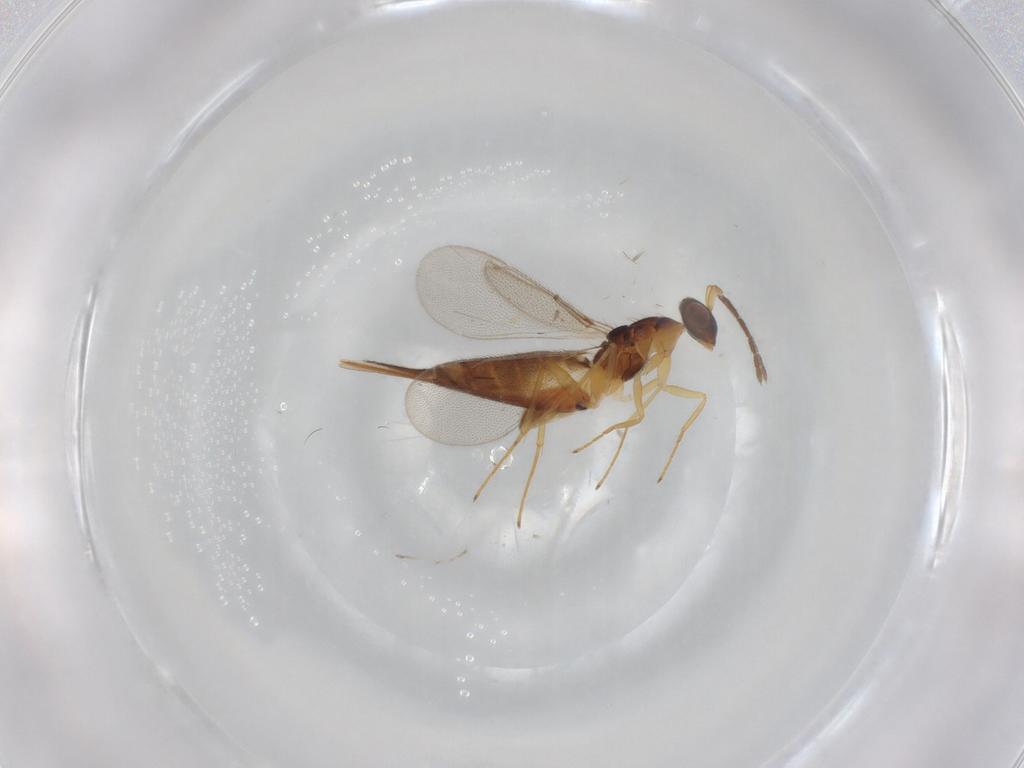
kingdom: Animalia
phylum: Arthropoda
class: Insecta
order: Hymenoptera
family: Eulophidae
